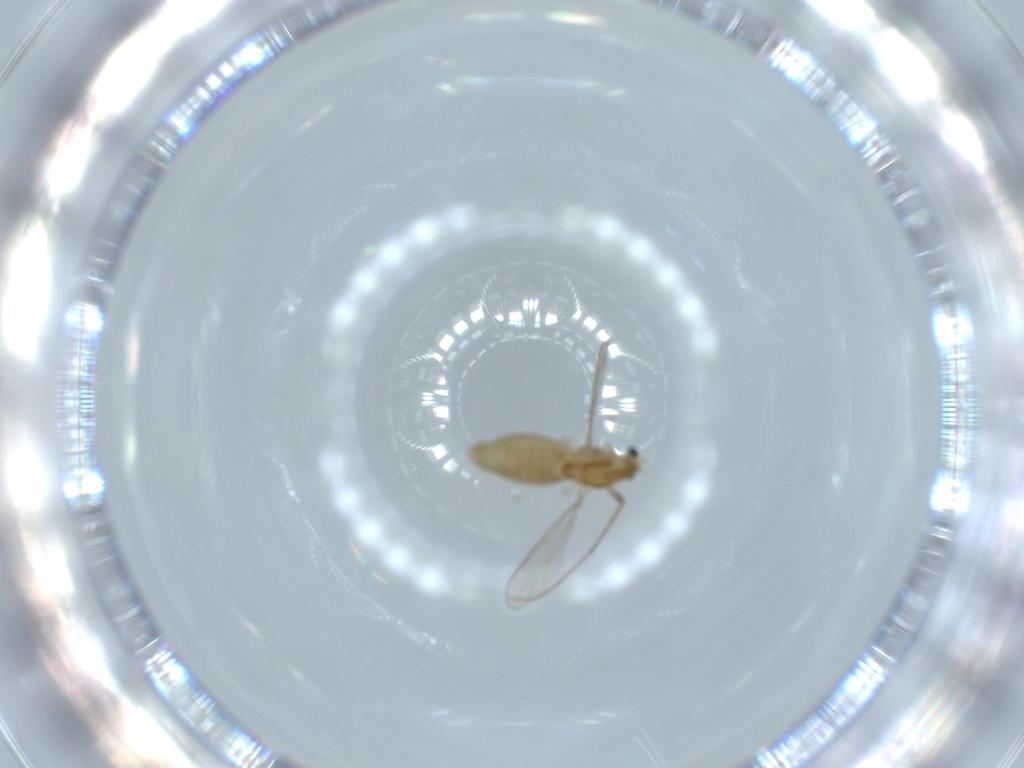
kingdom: Animalia
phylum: Arthropoda
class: Insecta
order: Diptera
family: Chironomidae
